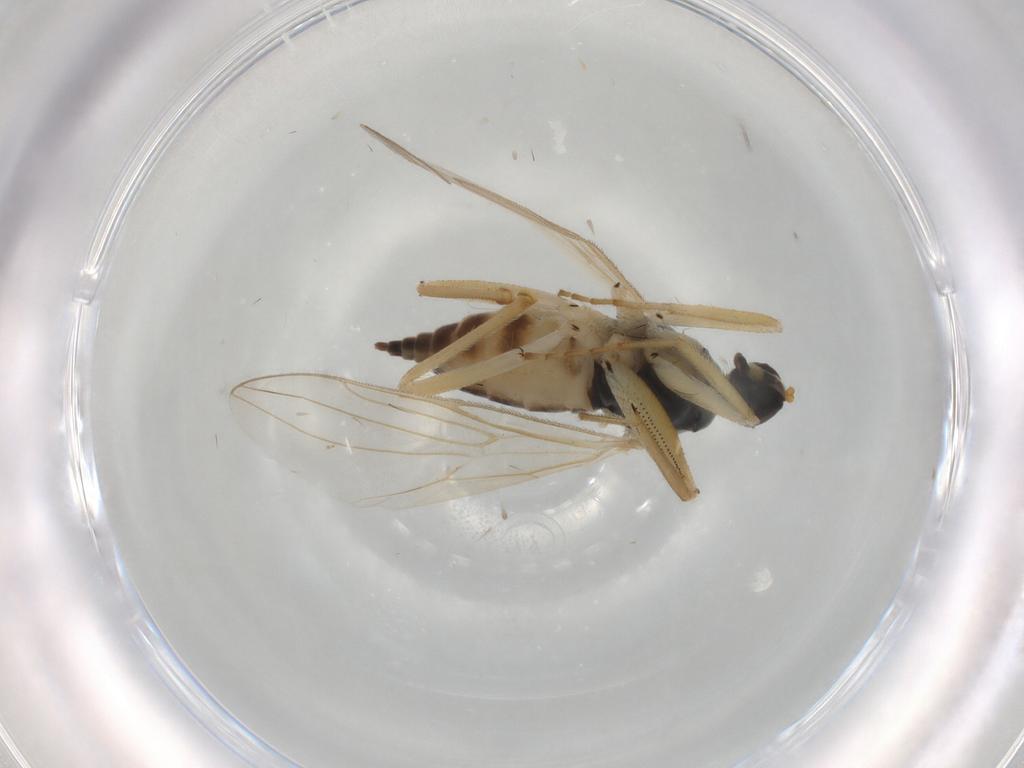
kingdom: Animalia
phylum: Arthropoda
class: Insecta
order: Diptera
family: Hybotidae
